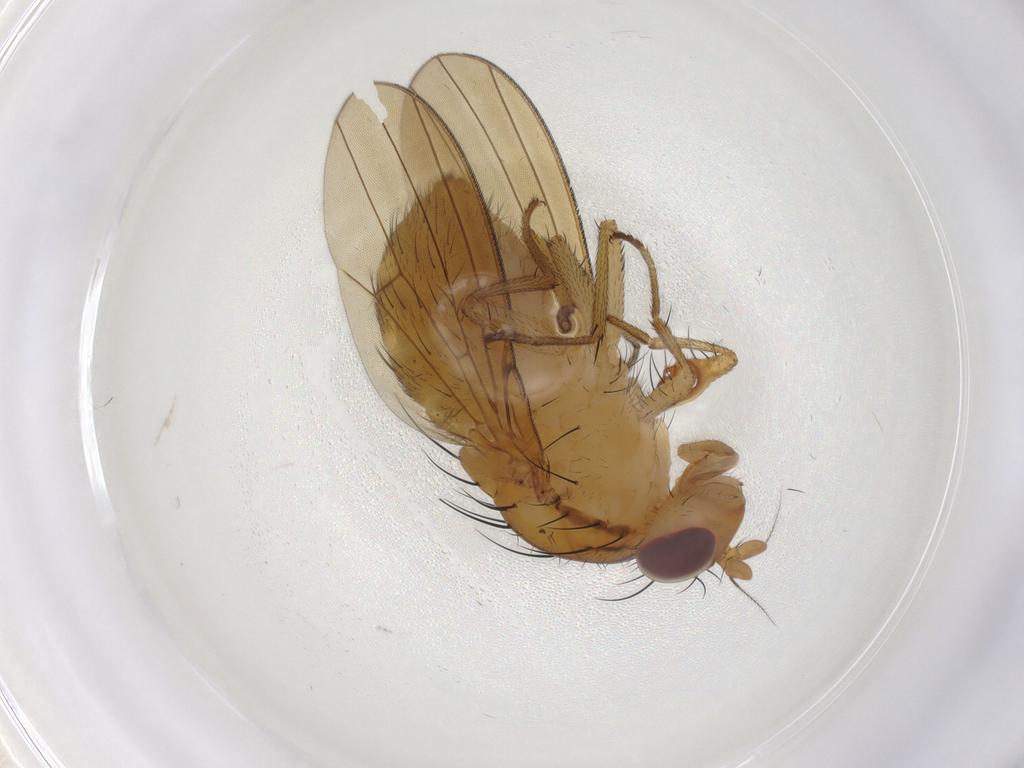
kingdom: Animalia
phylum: Arthropoda
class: Insecta
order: Diptera
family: Lauxaniidae
